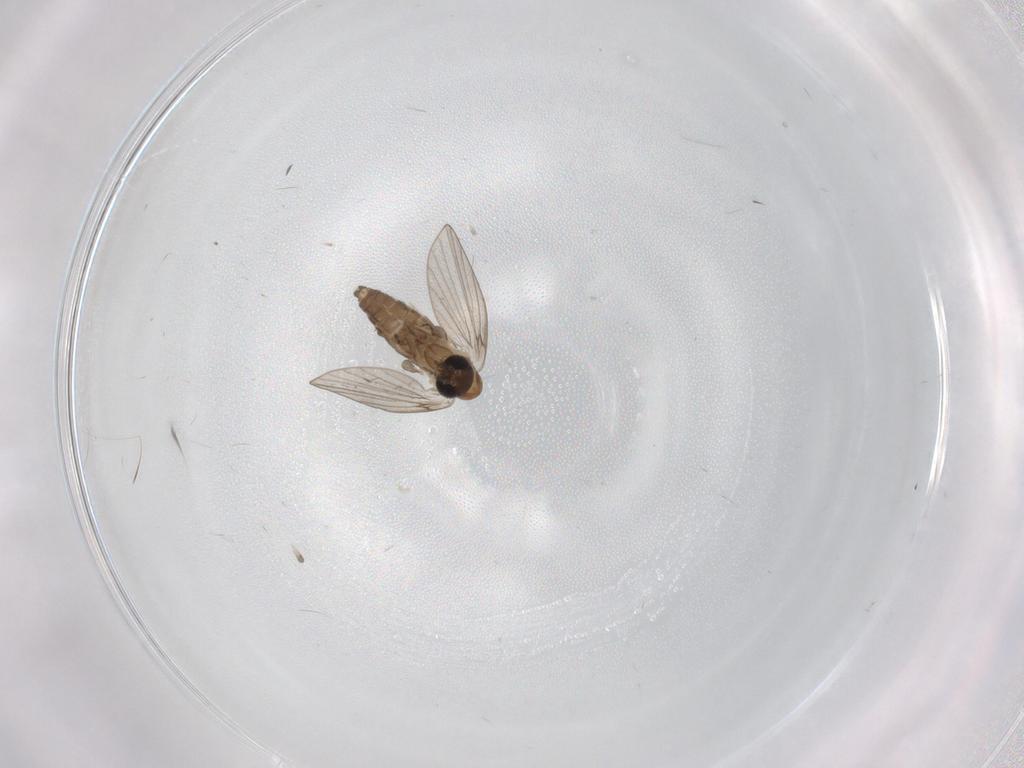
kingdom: Animalia
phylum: Arthropoda
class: Insecta
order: Diptera
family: Psychodidae
